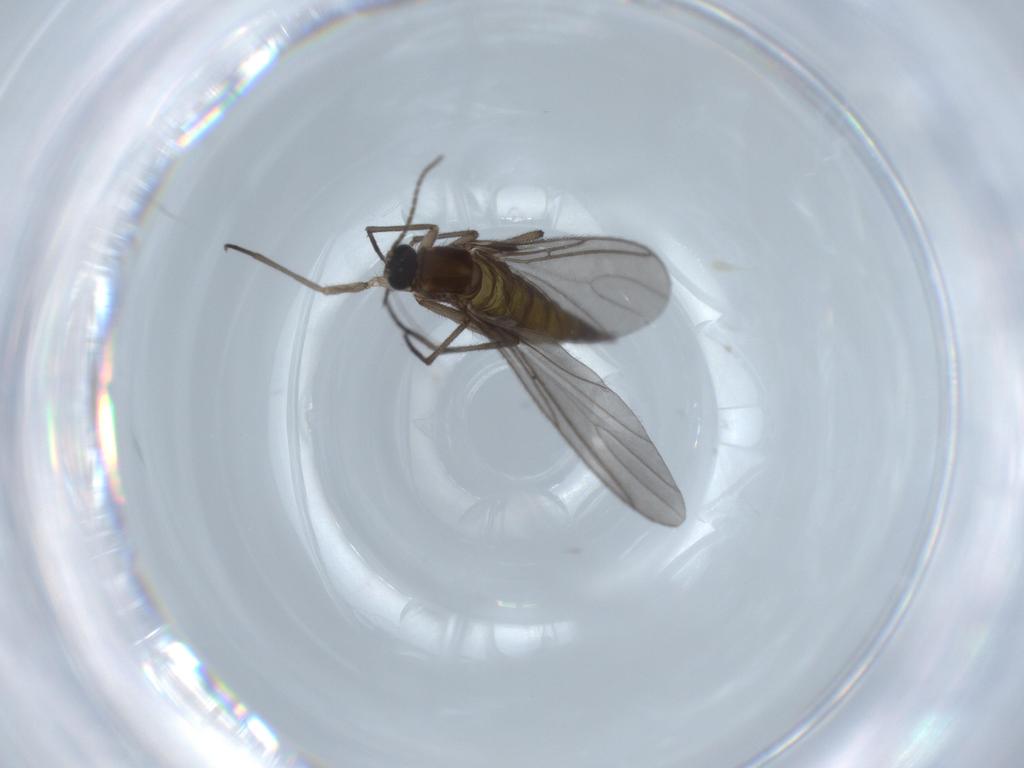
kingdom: Animalia
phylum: Arthropoda
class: Insecta
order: Diptera
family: Sciaridae
